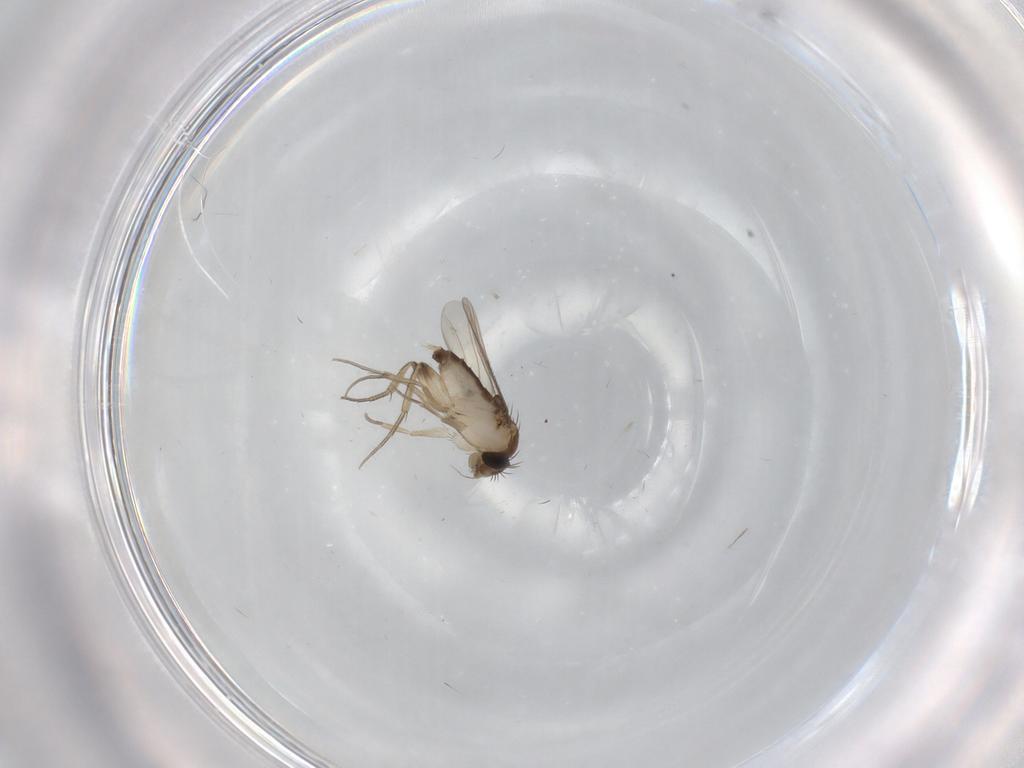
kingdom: Animalia
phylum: Arthropoda
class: Insecta
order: Diptera
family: Phoridae
